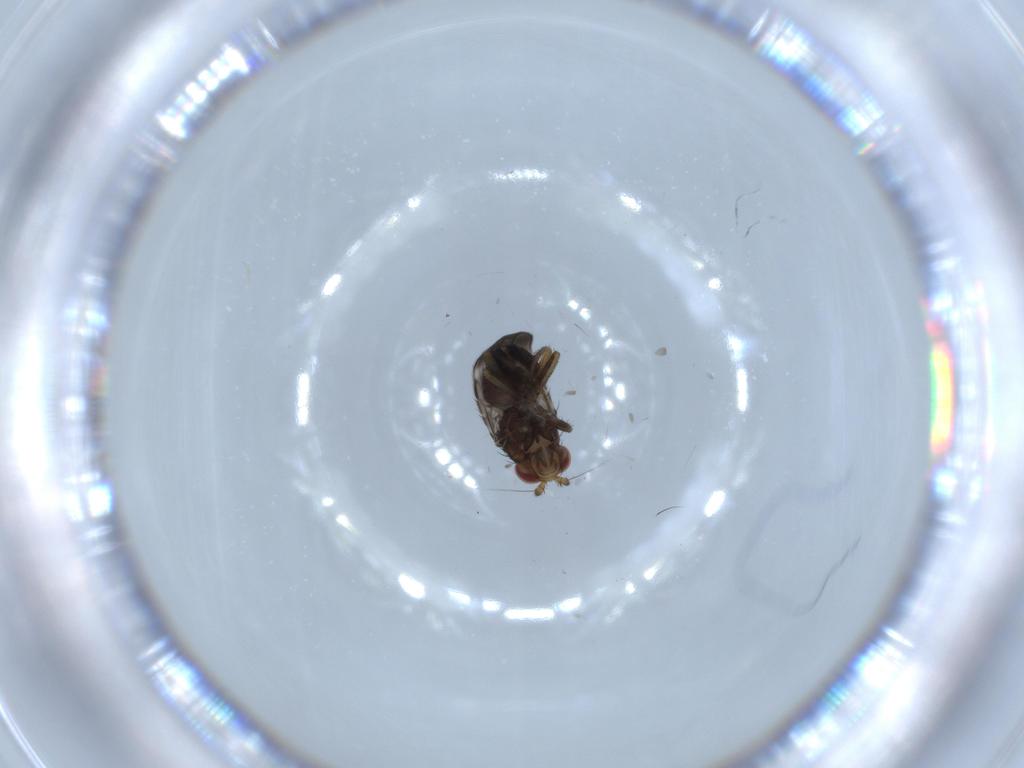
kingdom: Animalia
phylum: Arthropoda
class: Insecta
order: Diptera
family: Sphaeroceridae
